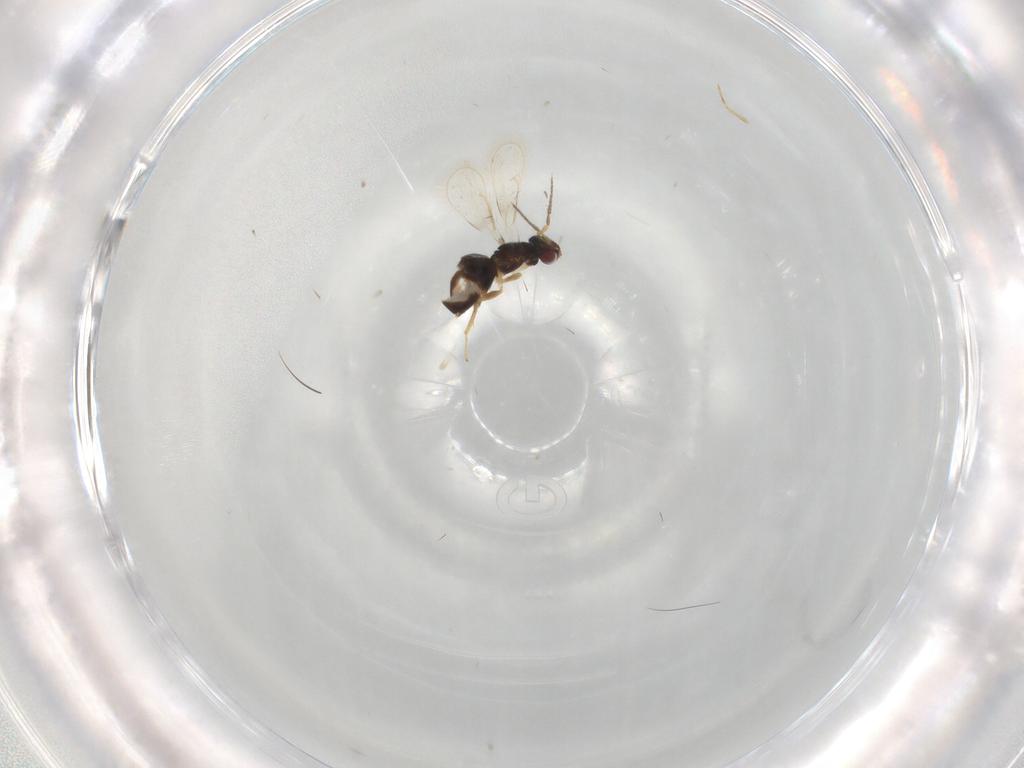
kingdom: Animalia
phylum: Arthropoda
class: Insecta
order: Hymenoptera
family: Eulophidae
